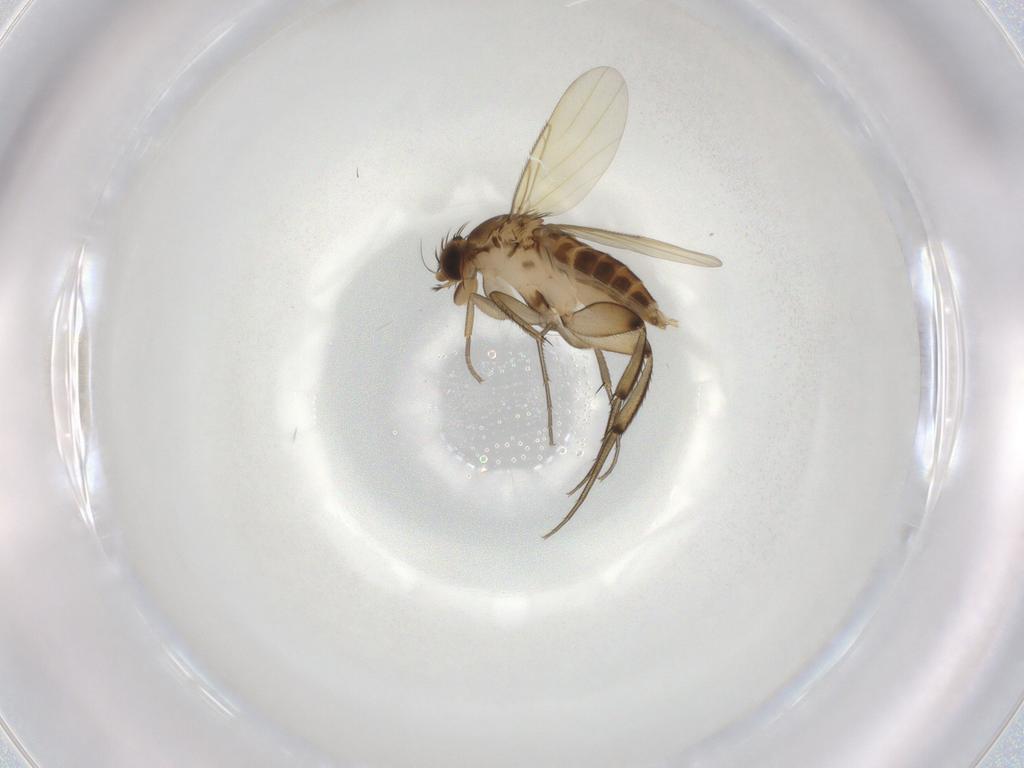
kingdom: Animalia
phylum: Arthropoda
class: Insecta
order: Diptera
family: Phoridae
